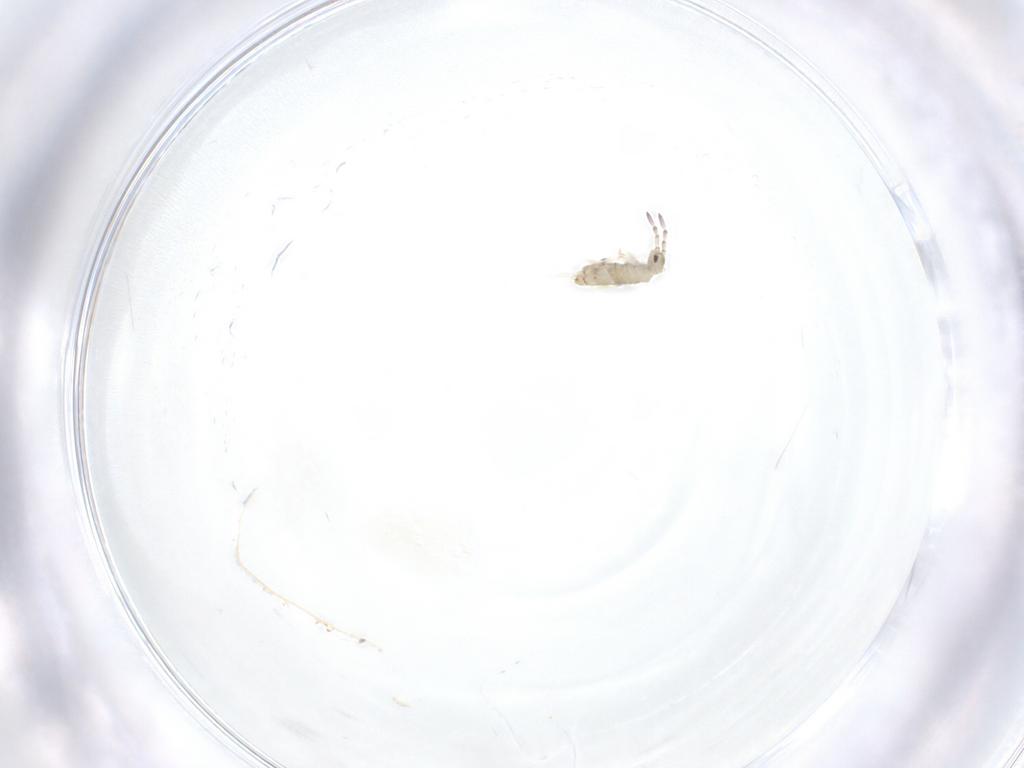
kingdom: Animalia
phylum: Arthropoda
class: Collembola
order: Entomobryomorpha
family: Entomobryidae
